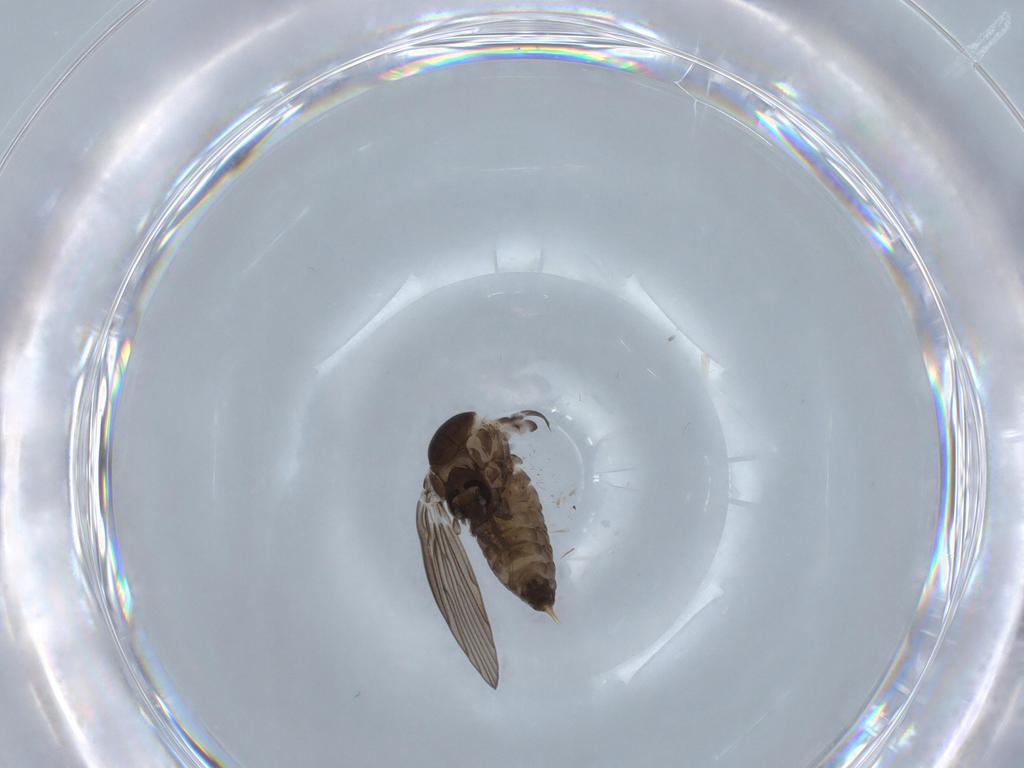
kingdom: Animalia
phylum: Arthropoda
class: Insecta
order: Diptera
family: Psychodidae
